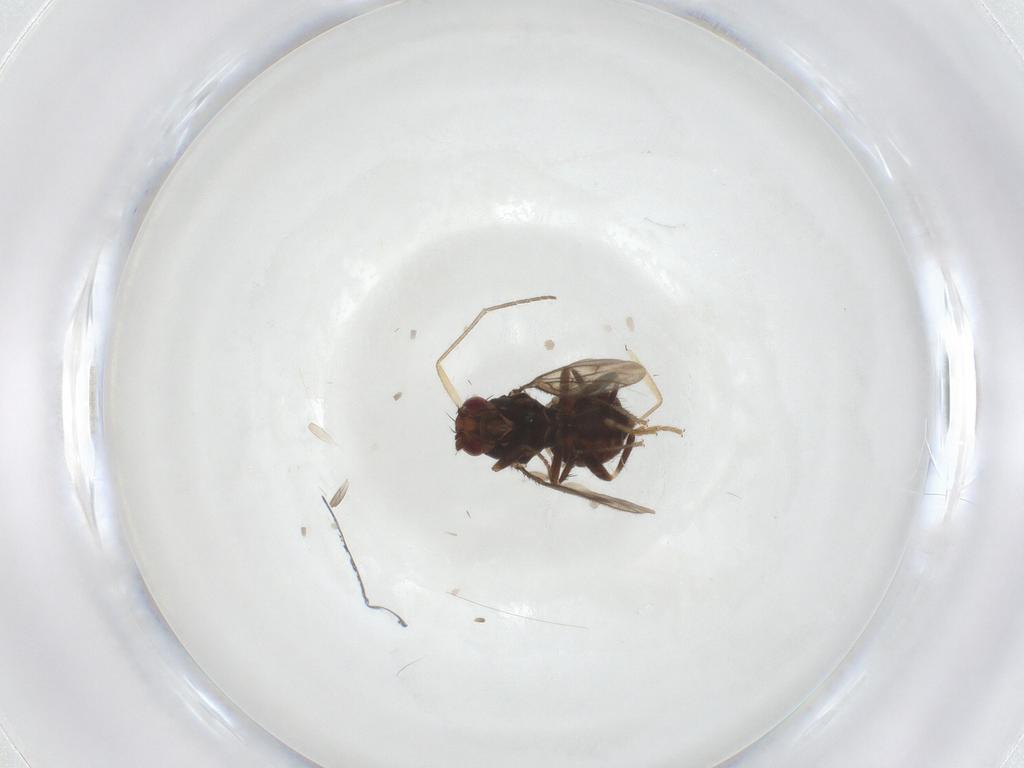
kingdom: Animalia
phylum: Arthropoda
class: Insecta
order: Diptera
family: Sphaeroceridae
